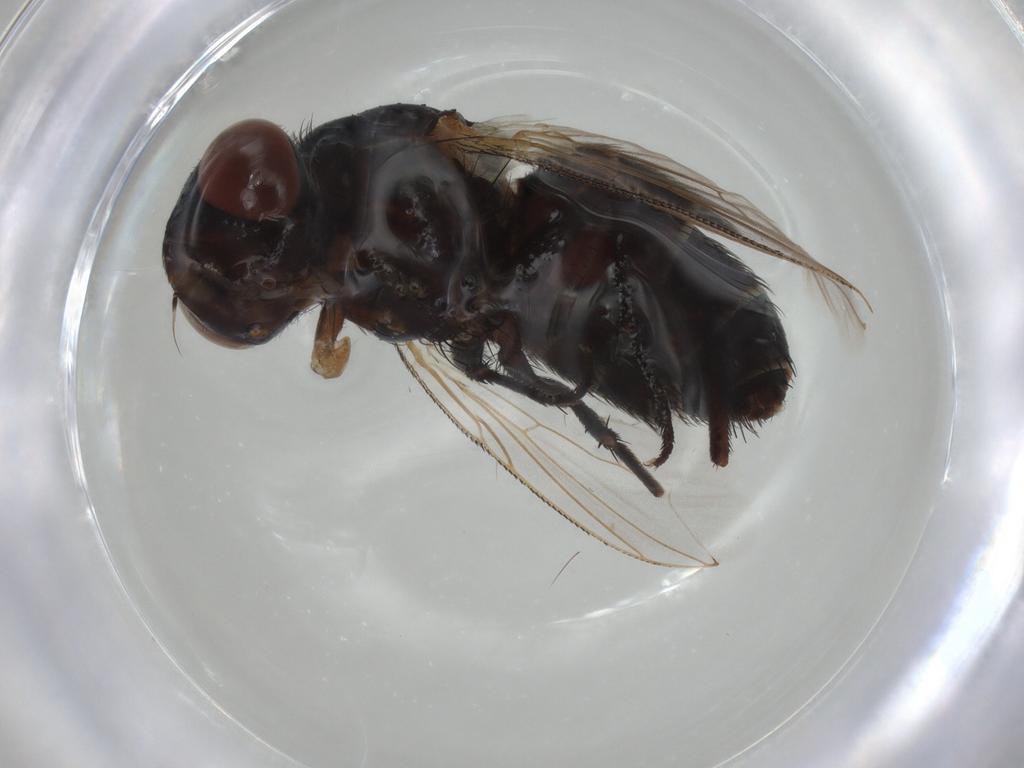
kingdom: Animalia
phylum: Arthropoda
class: Insecta
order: Diptera
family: Sarcophagidae
